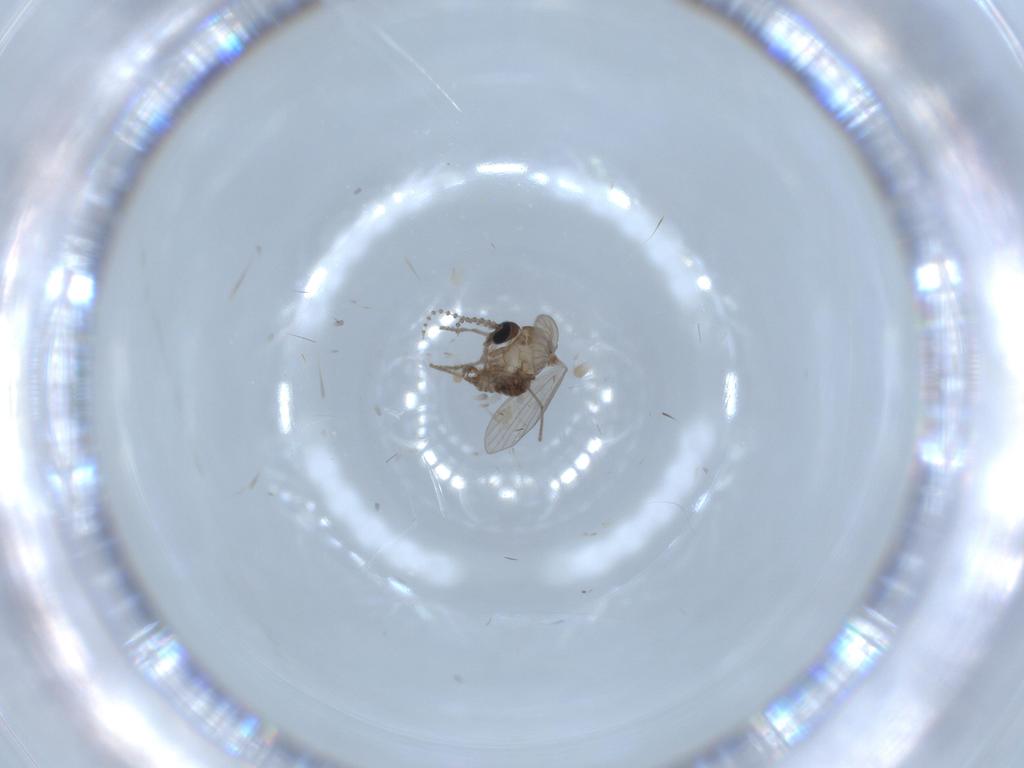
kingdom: Animalia
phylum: Arthropoda
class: Insecta
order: Diptera
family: Psychodidae
